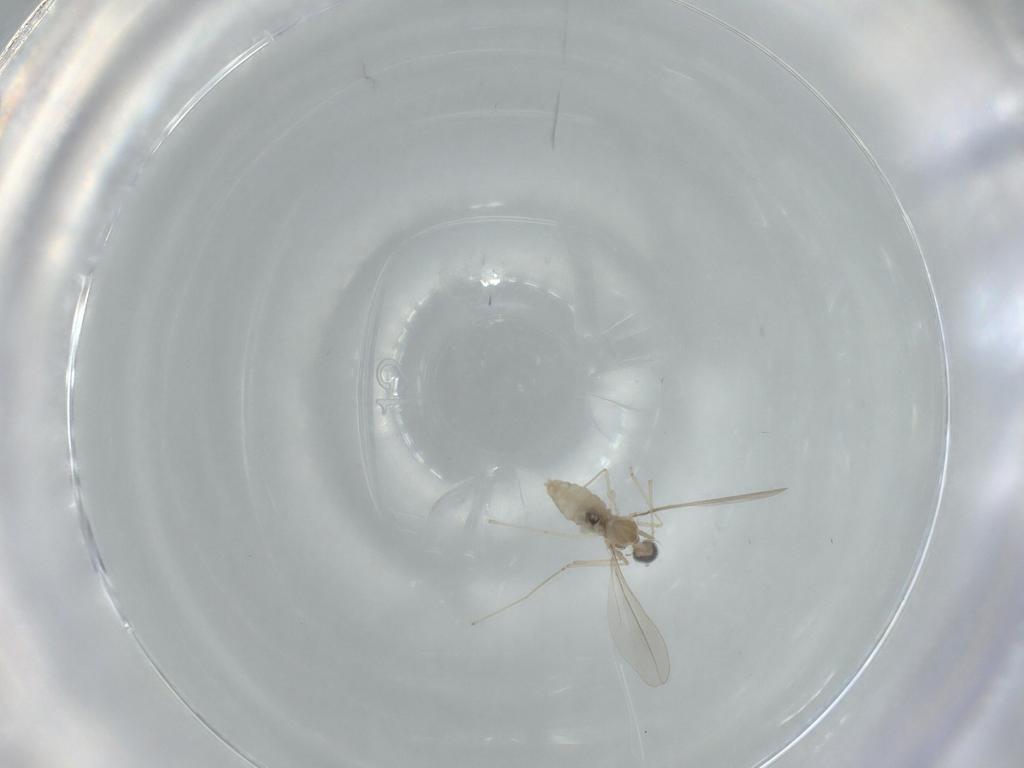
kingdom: Animalia
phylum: Arthropoda
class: Insecta
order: Diptera
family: Cecidomyiidae
